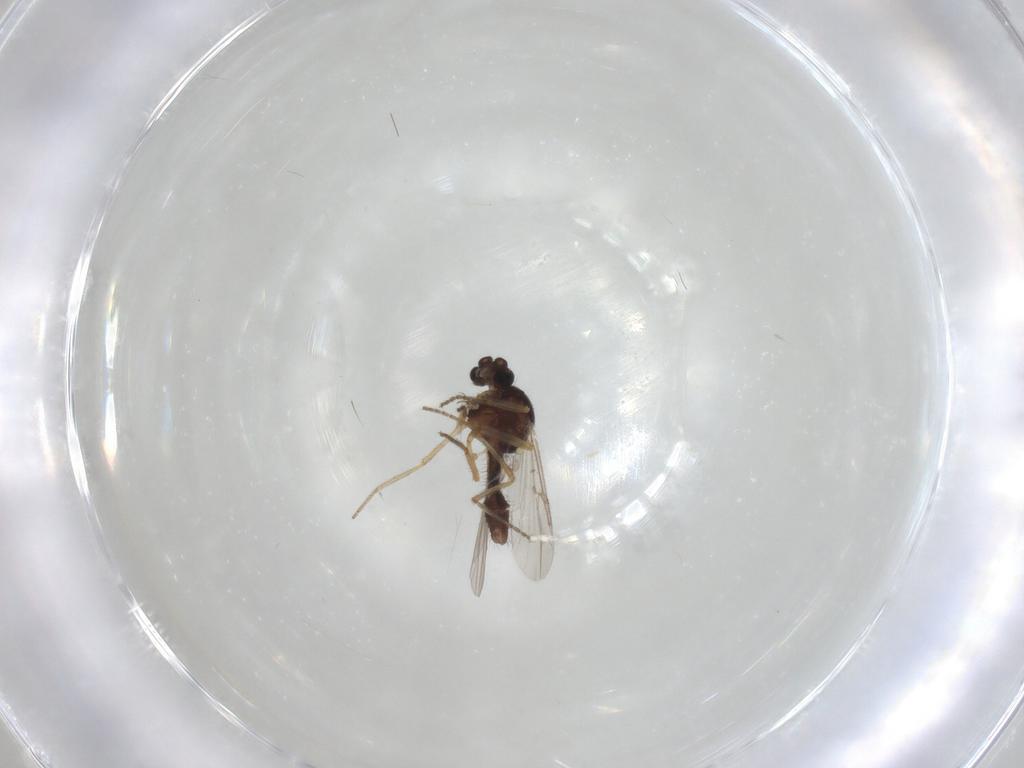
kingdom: Animalia
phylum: Arthropoda
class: Insecta
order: Diptera
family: Ceratopogonidae
